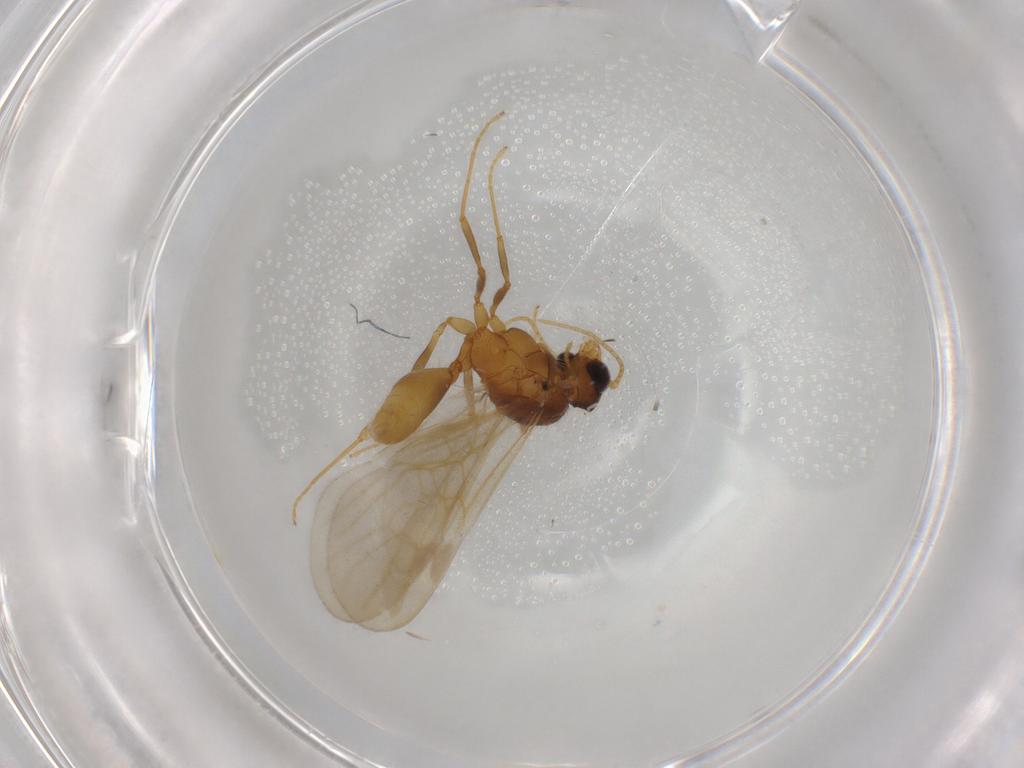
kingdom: Animalia
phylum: Arthropoda
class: Insecta
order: Hymenoptera
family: Formicidae
